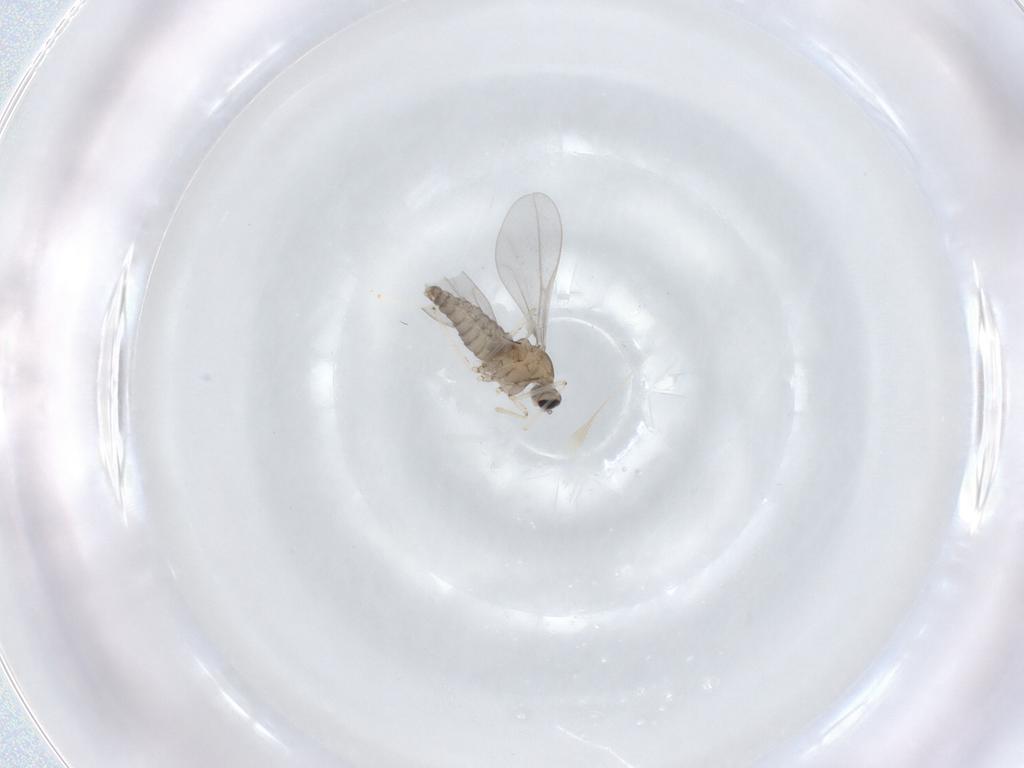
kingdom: Animalia
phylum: Arthropoda
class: Insecta
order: Diptera
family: Cecidomyiidae
